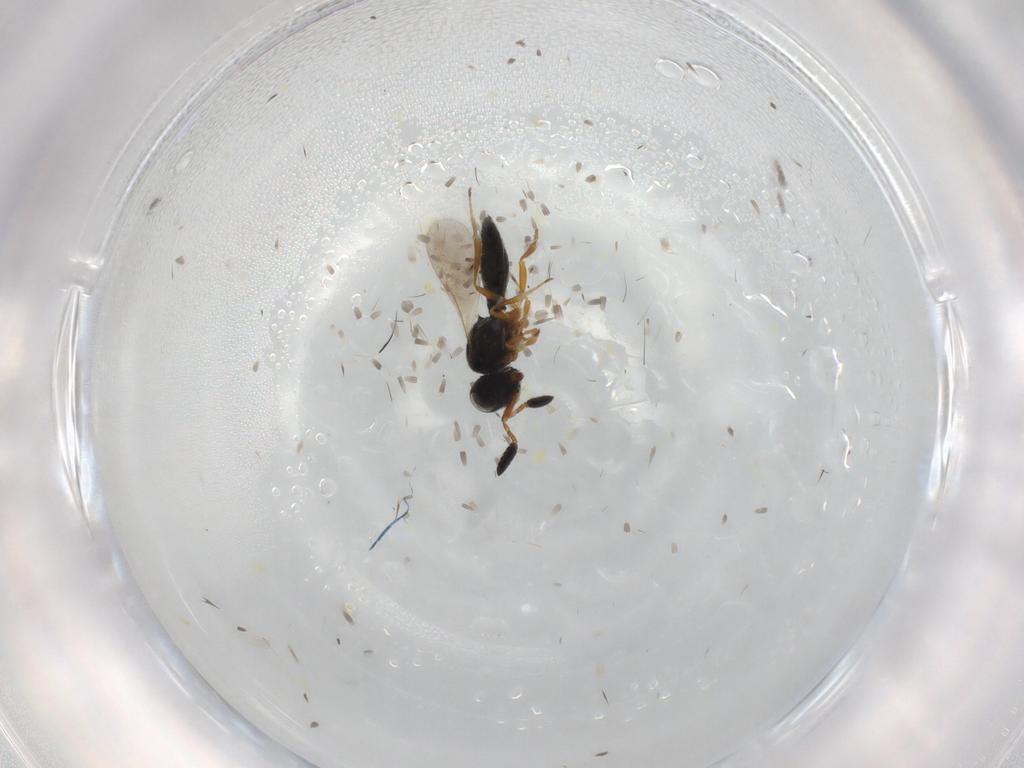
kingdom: Animalia
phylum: Arthropoda
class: Insecta
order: Hymenoptera
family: Scelionidae
